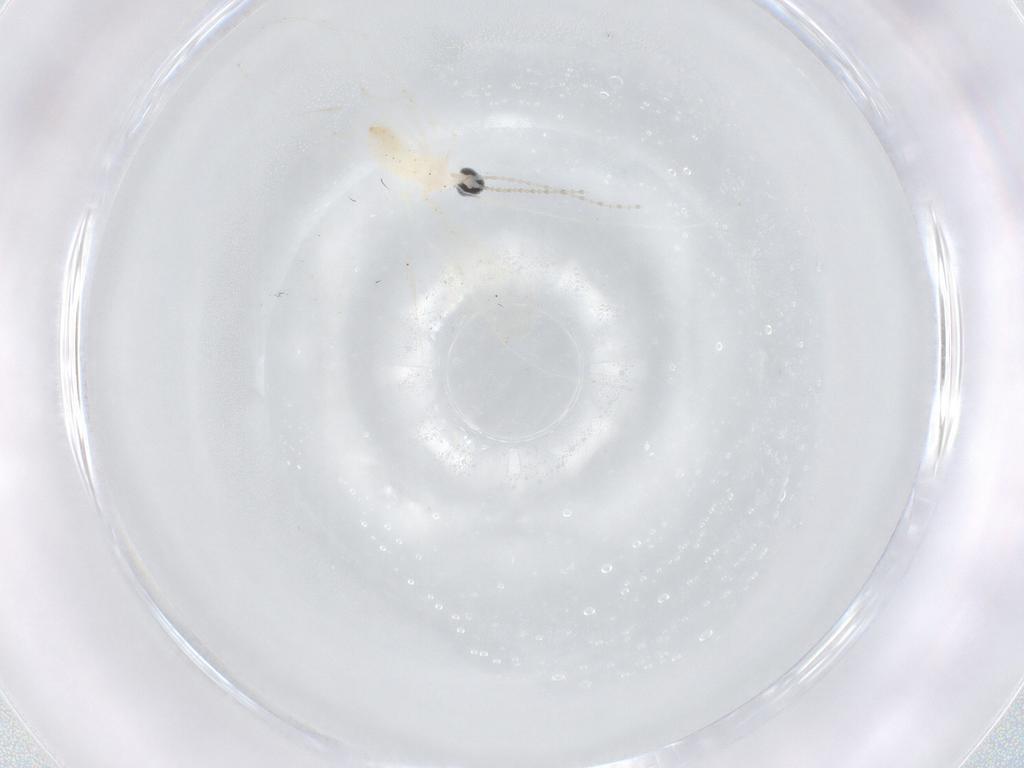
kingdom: Animalia
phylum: Arthropoda
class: Insecta
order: Diptera
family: Cecidomyiidae
